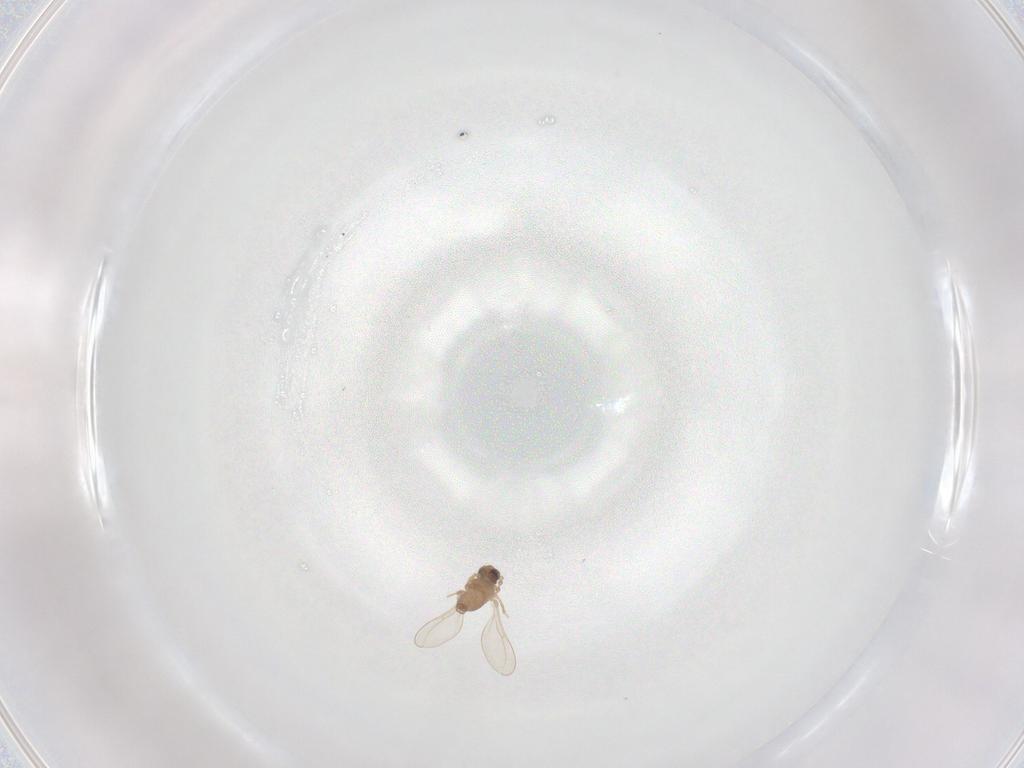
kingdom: Animalia
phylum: Arthropoda
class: Insecta
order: Diptera
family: Cecidomyiidae
